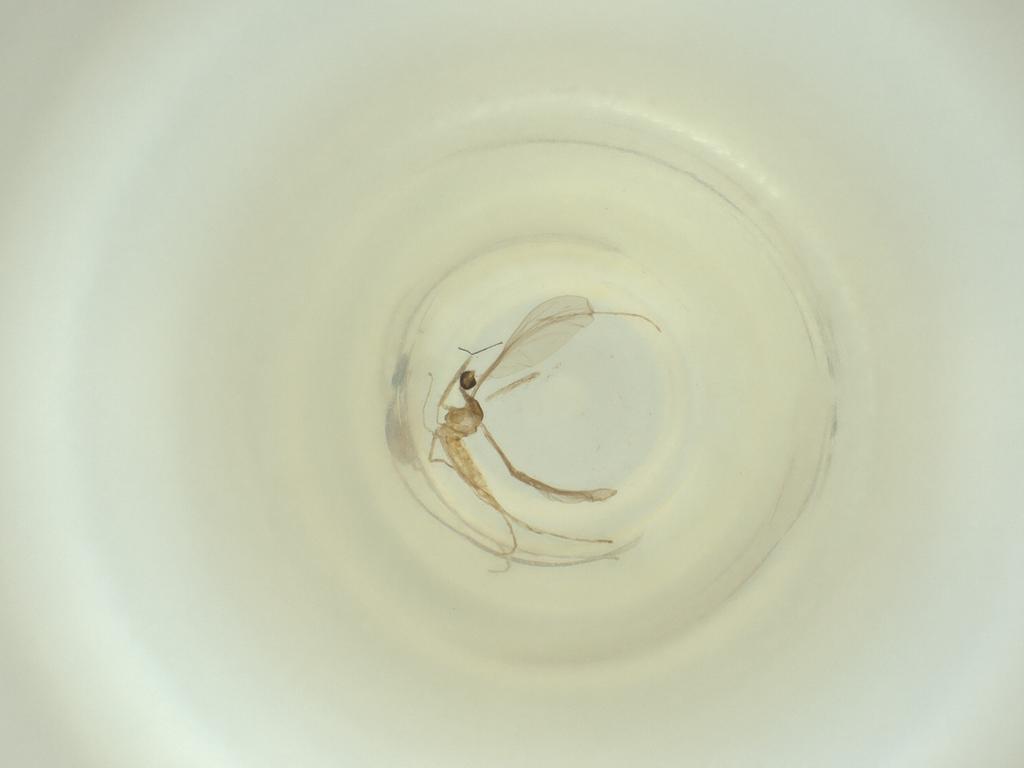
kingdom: Animalia
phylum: Arthropoda
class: Insecta
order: Diptera
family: Cecidomyiidae
